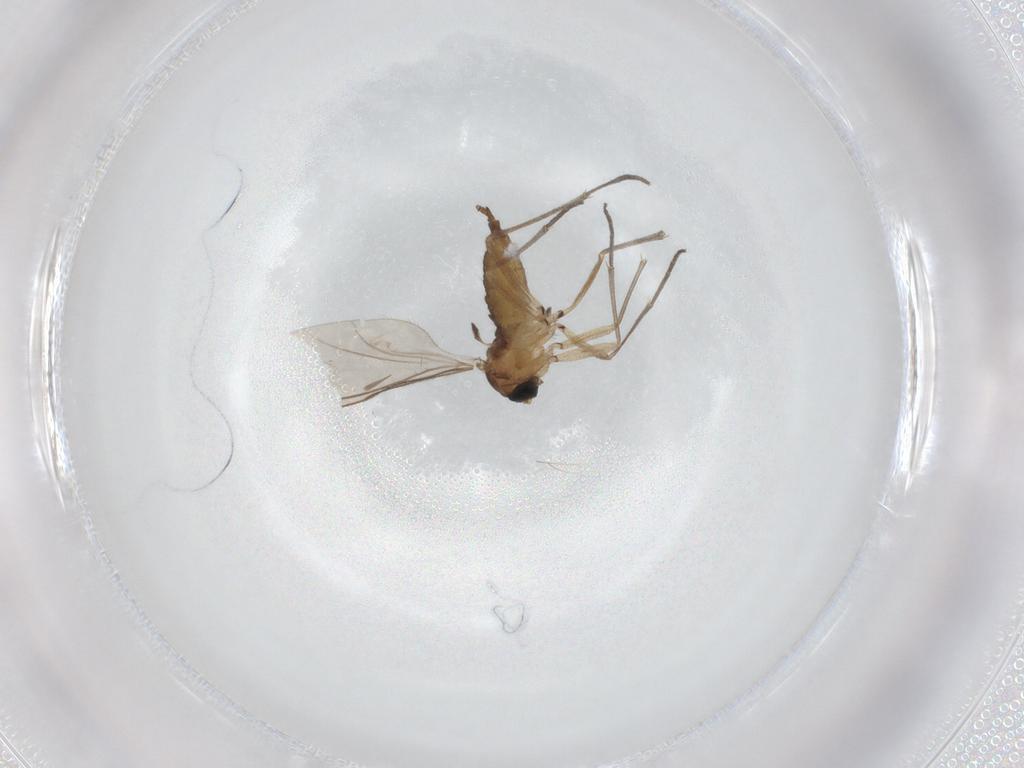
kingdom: Animalia
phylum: Arthropoda
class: Insecta
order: Diptera
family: Sciaridae
